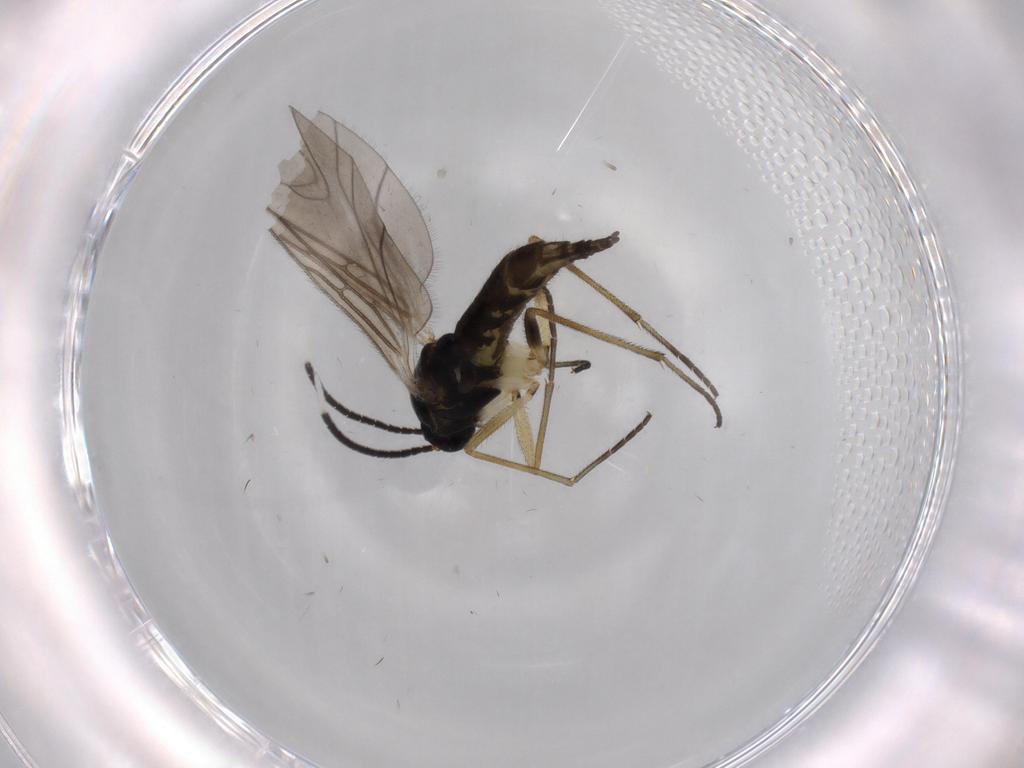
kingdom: Animalia
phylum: Arthropoda
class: Insecta
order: Diptera
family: Sciaridae
